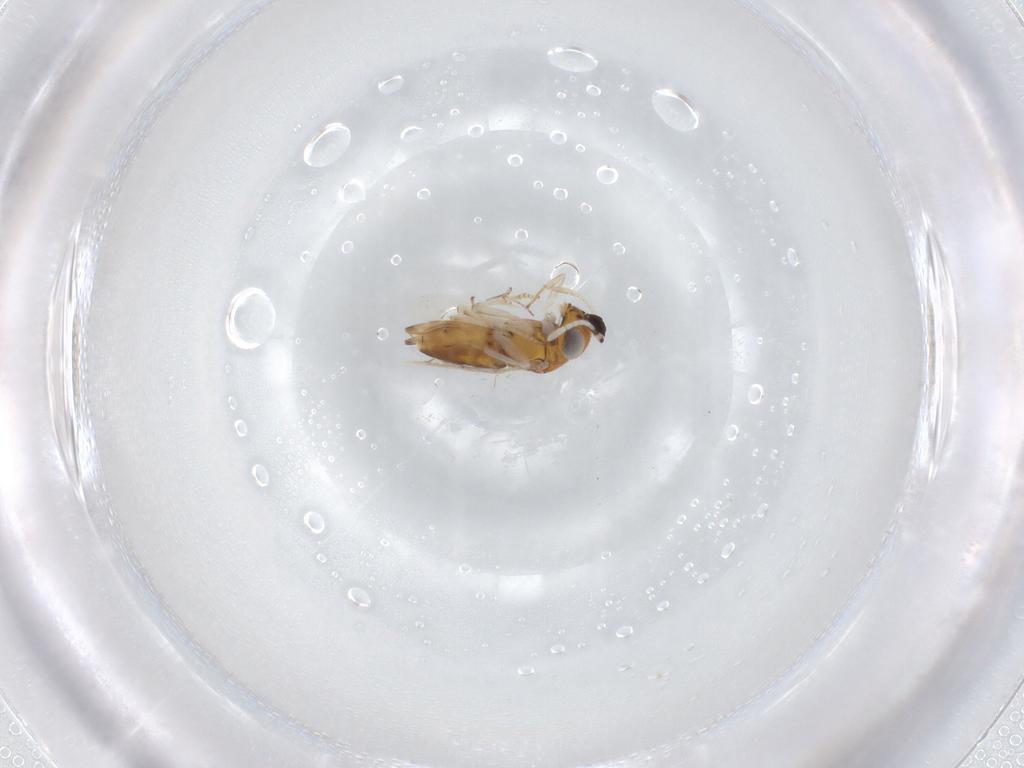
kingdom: Animalia
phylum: Arthropoda
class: Insecta
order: Hymenoptera
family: Encyrtidae
